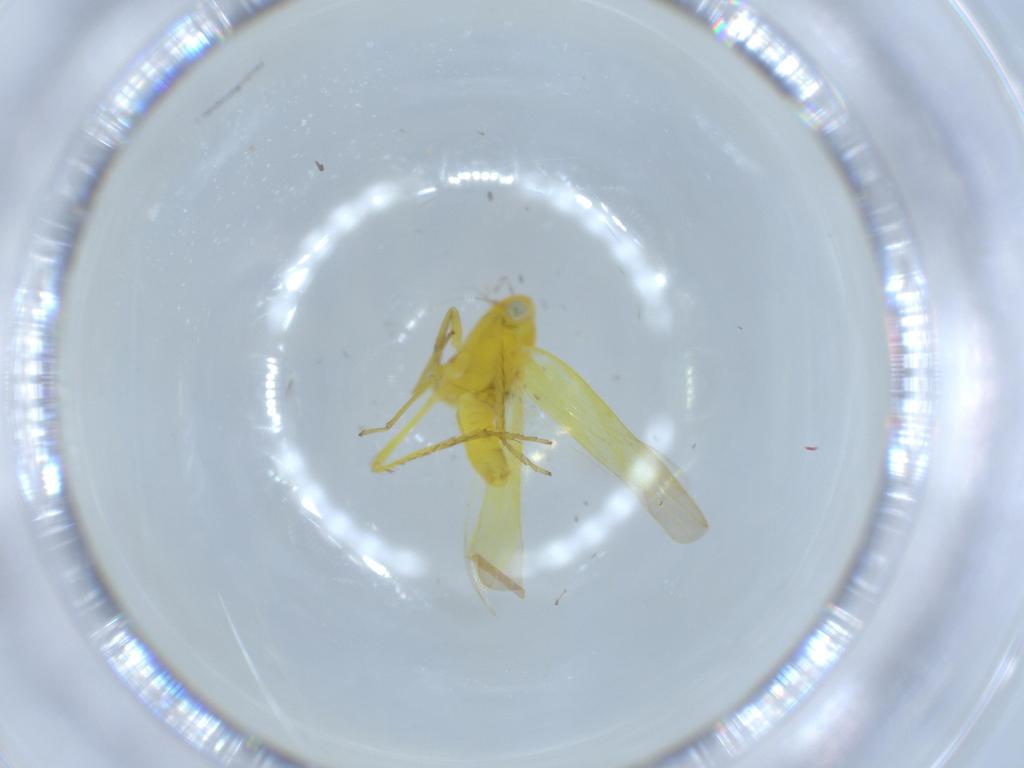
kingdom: Animalia
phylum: Arthropoda
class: Insecta
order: Hemiptera
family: Cicadellidae
